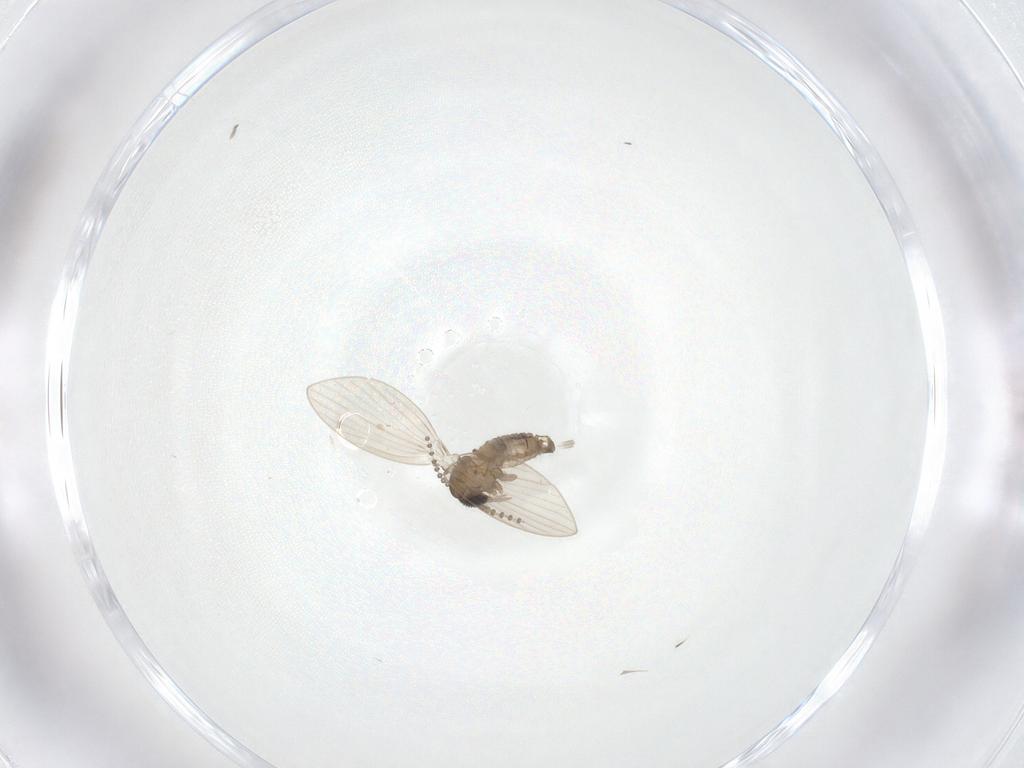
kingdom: Animalia
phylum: Arthropoda
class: Insecta
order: Diptera
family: Psychodidae
